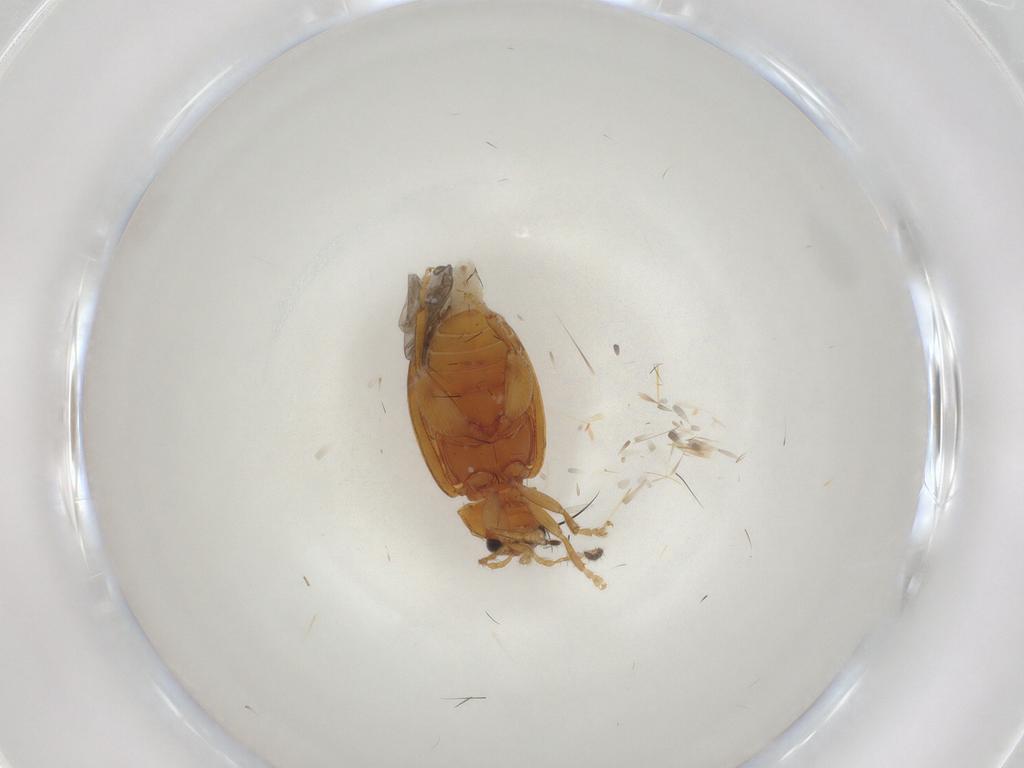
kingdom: Animalia
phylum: Arthropoda
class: Insecta
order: Coleoptera
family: Chrysomelidae
